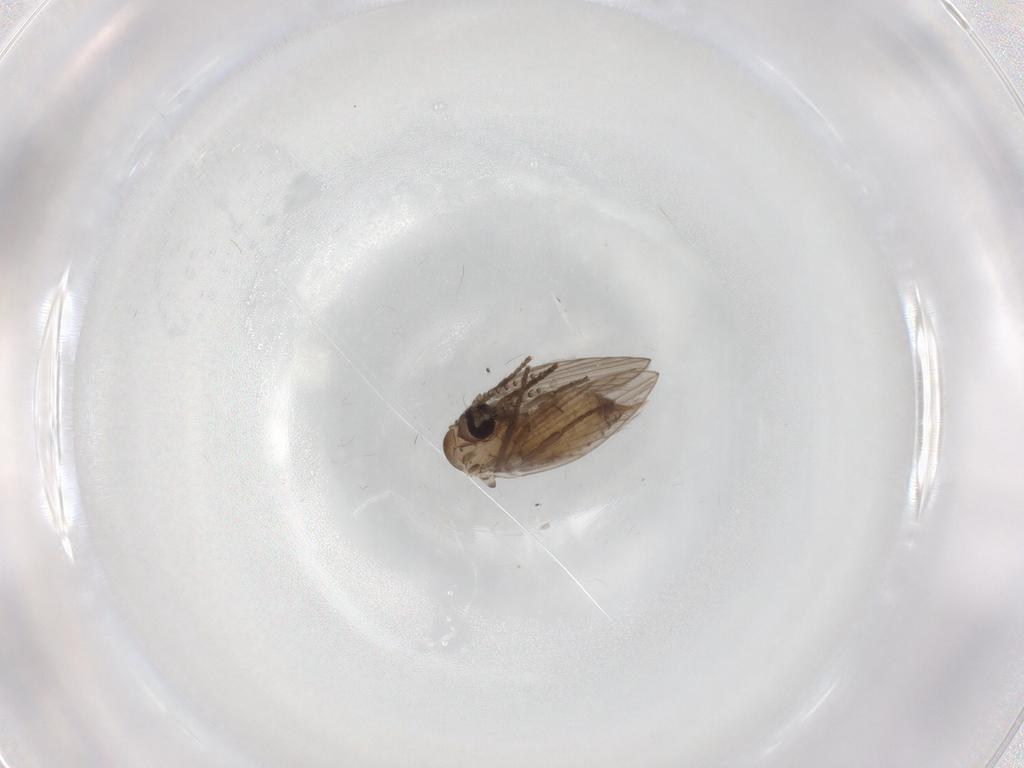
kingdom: Animalia
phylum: Arthropoda
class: Insecta
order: Diptera
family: Psychodidae
